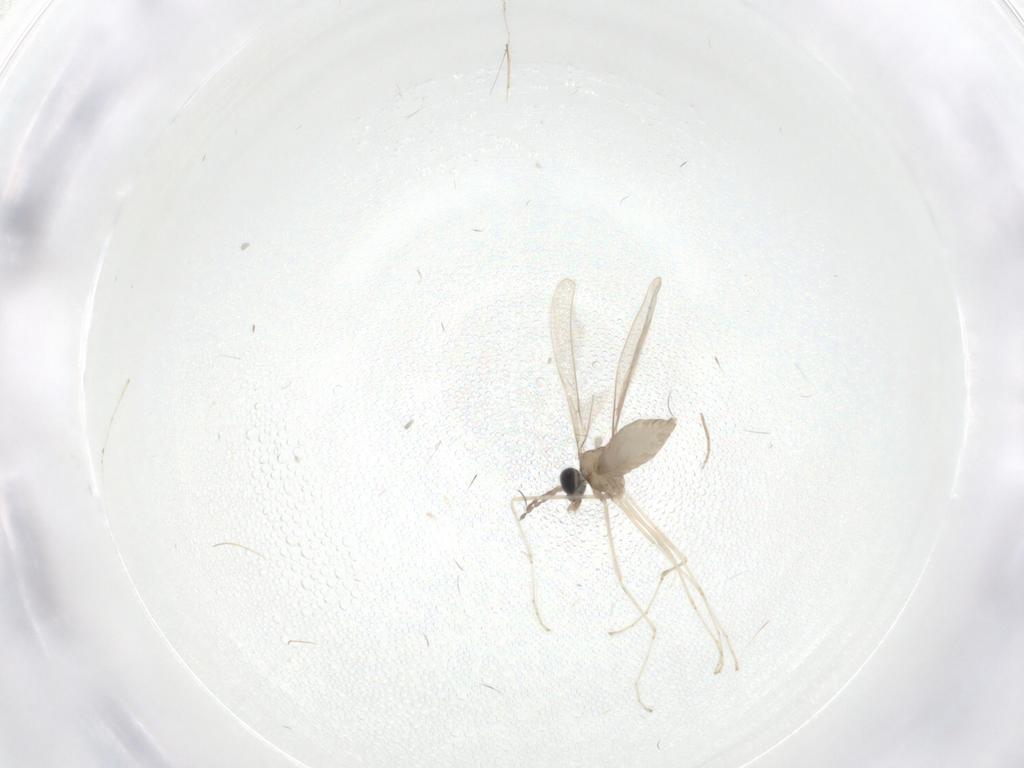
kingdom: Animalia
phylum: Arthropoda
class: Insecta
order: Diptera
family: Cecidomyiidae
